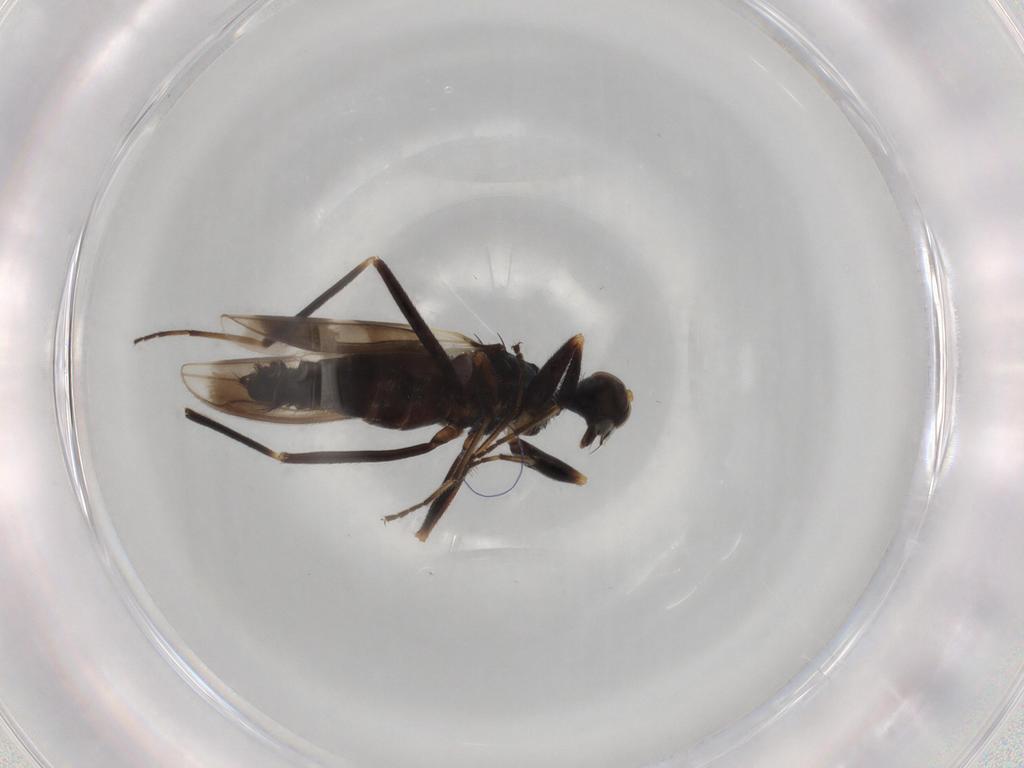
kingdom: Animalia
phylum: Arthropoda
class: Insecta
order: Diptera
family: Hybotidae
